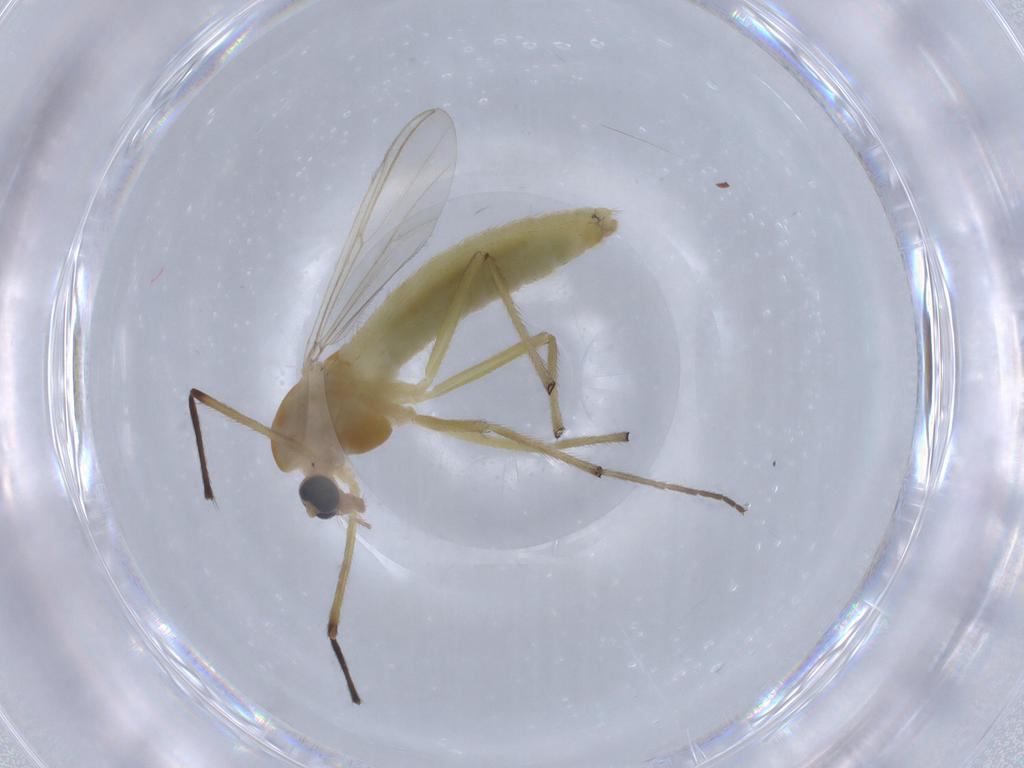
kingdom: Animalia
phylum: Arthropoda
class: Insecta
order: Diptera
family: Chironomidae
